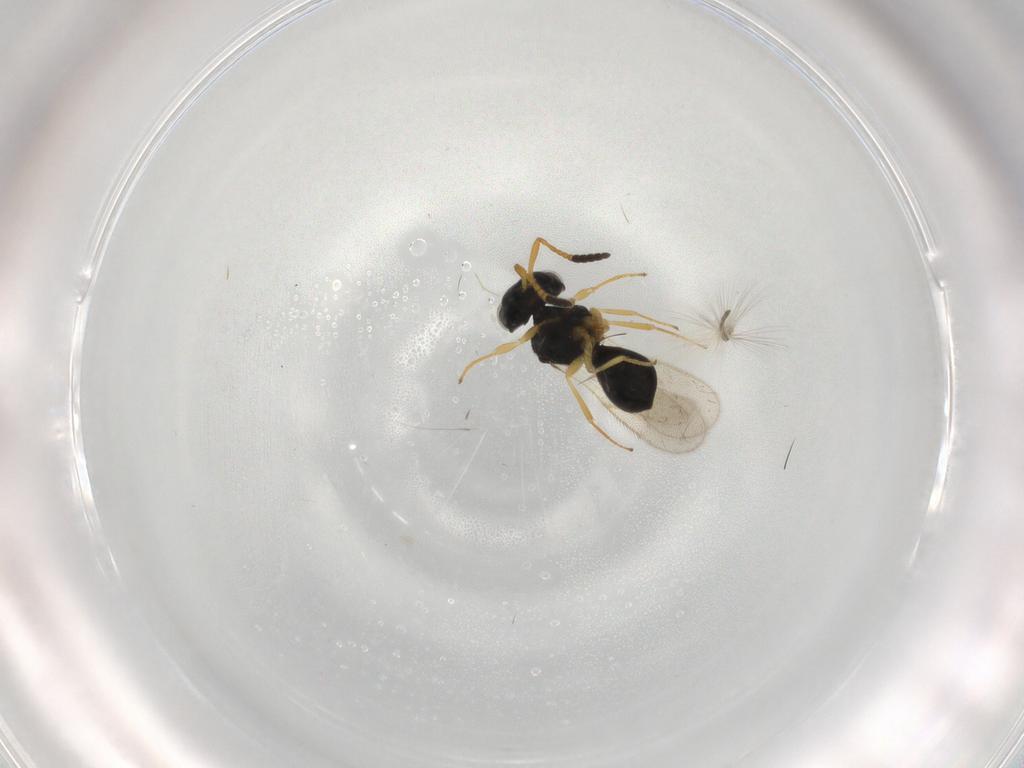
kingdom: Animalia
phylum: Arthropoda
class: Insecta
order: Hymenoptera
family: Scelionidae
